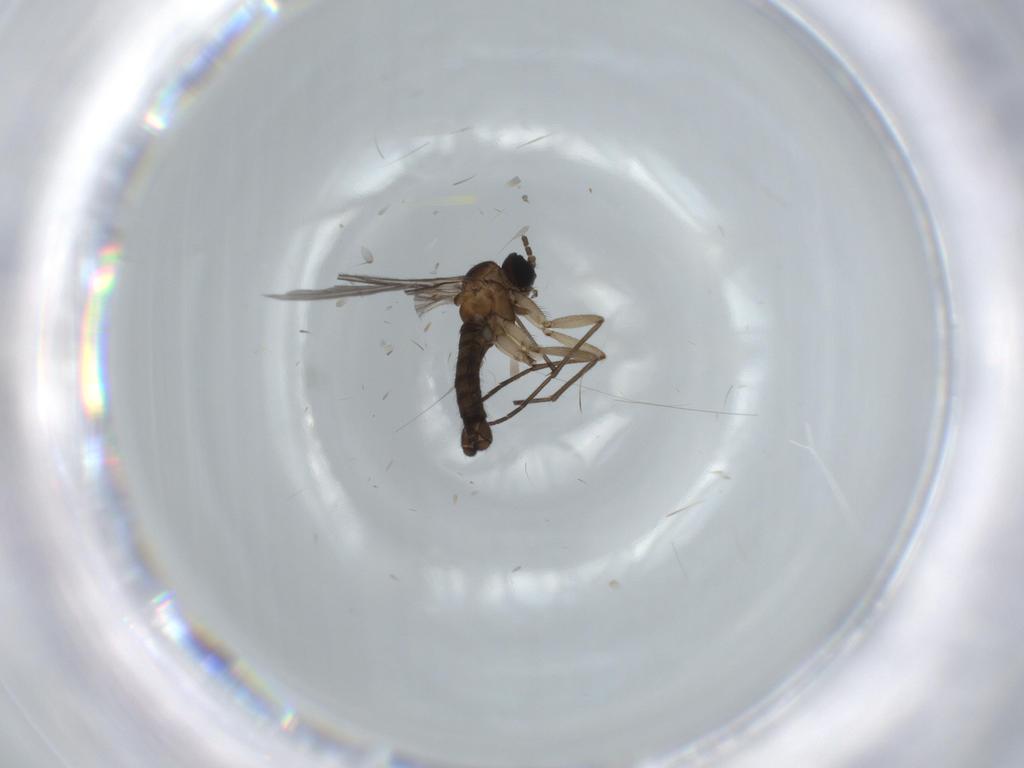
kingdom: Animalia
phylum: Arthropoda
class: Insecta
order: Diptera
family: Sciaridae
